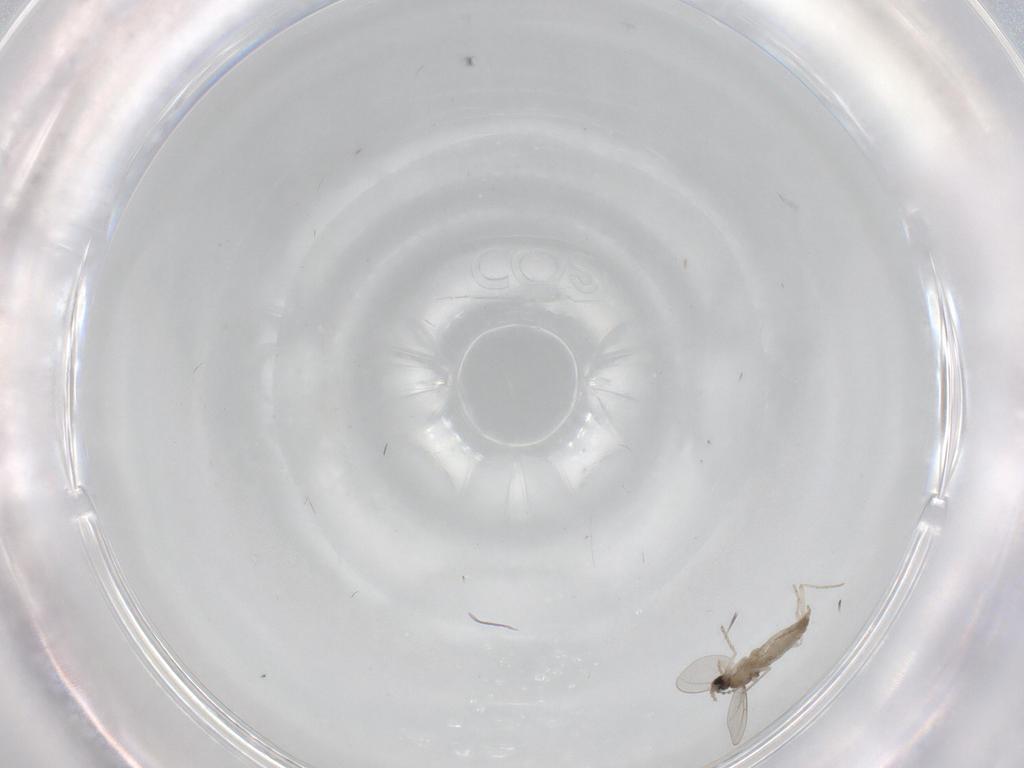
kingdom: Animalia
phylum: Arthropoda
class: Insecta
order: Diptera
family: Cecidomyiidae
